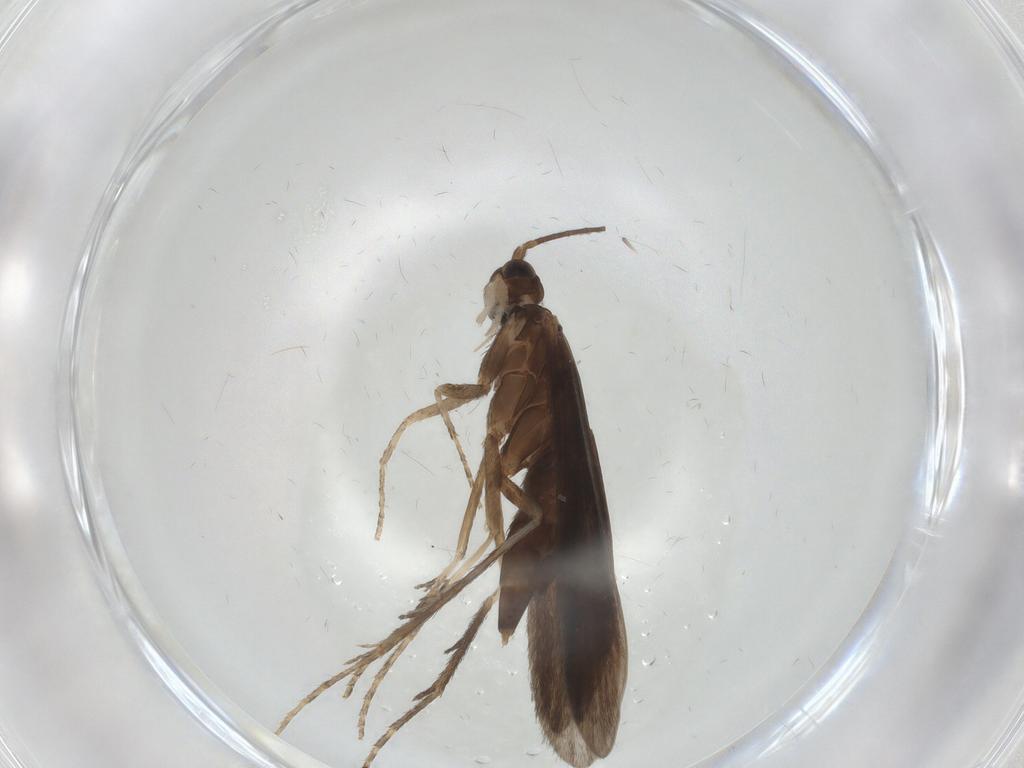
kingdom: Animalia
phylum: Arthropoda
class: Insecta
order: Trichoptera
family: Xiphocentronidae
